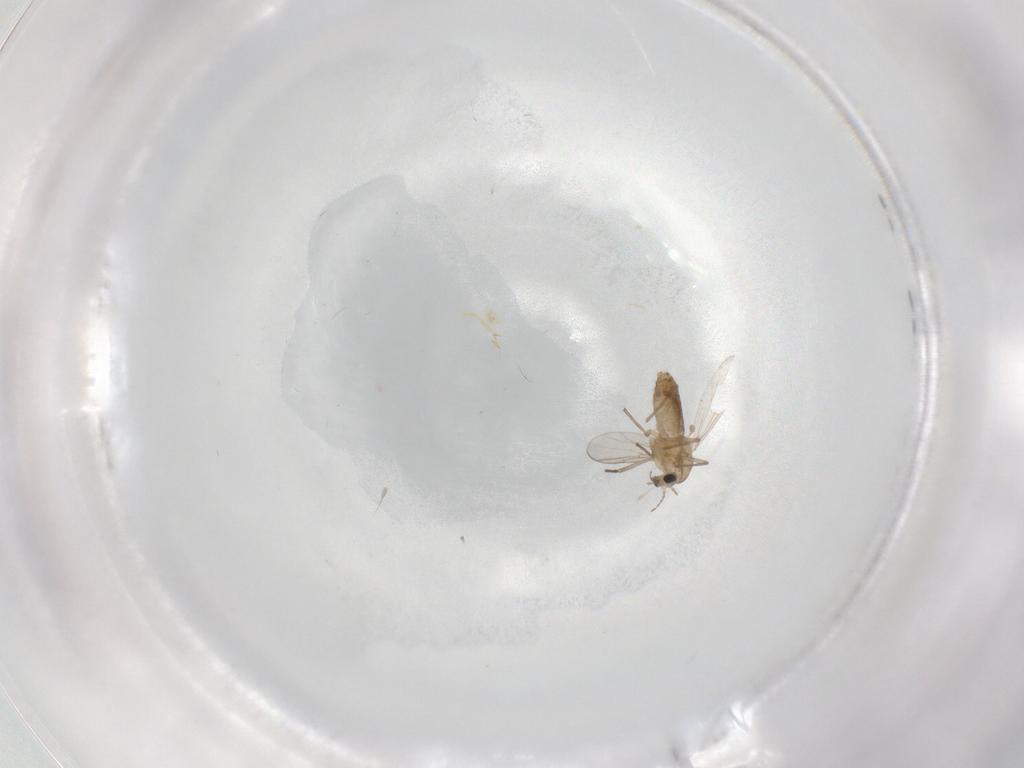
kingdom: Animalia
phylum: Arthropoda
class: Insecta
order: Diptera
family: Chironomidae
